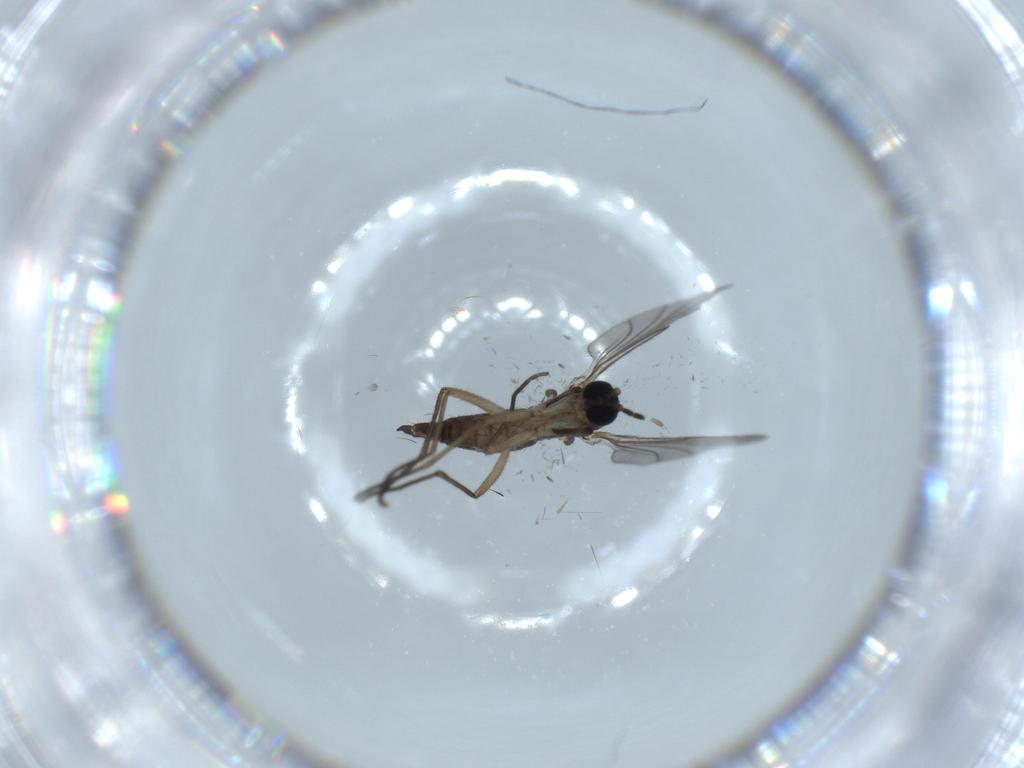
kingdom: Animalia
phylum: Arthropoda
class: Insecta
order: Diptera
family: Sciaridae
